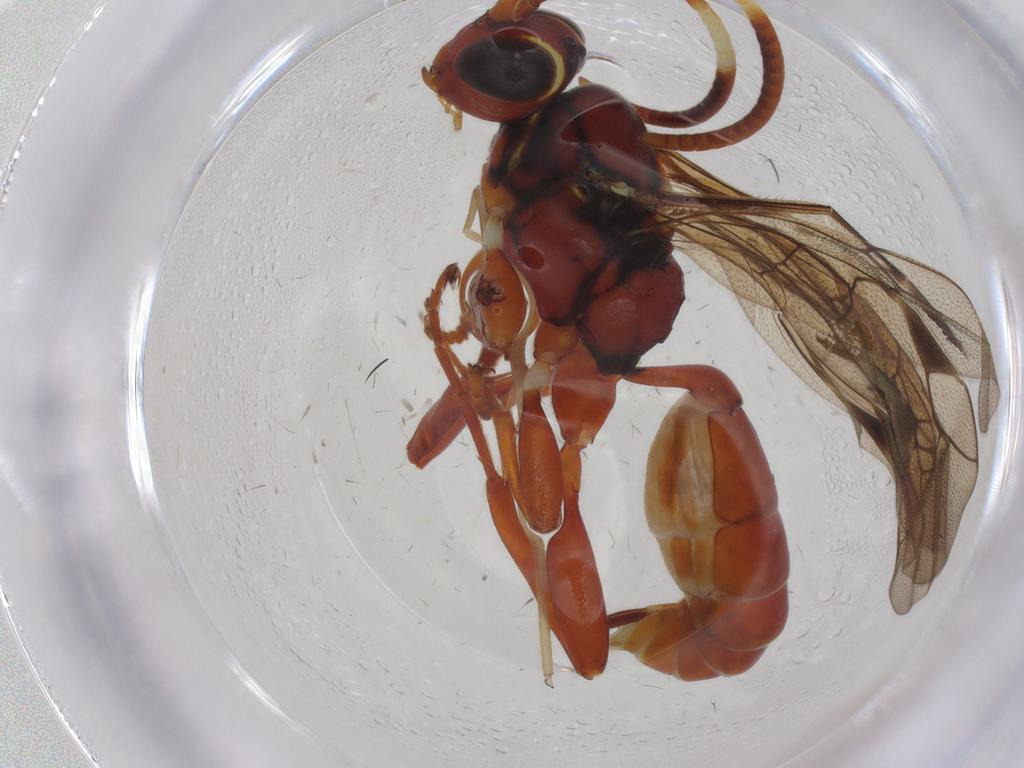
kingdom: Animalia
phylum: Arthropoda
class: Insecta
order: Hymenoptera
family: Ichneumonidae
